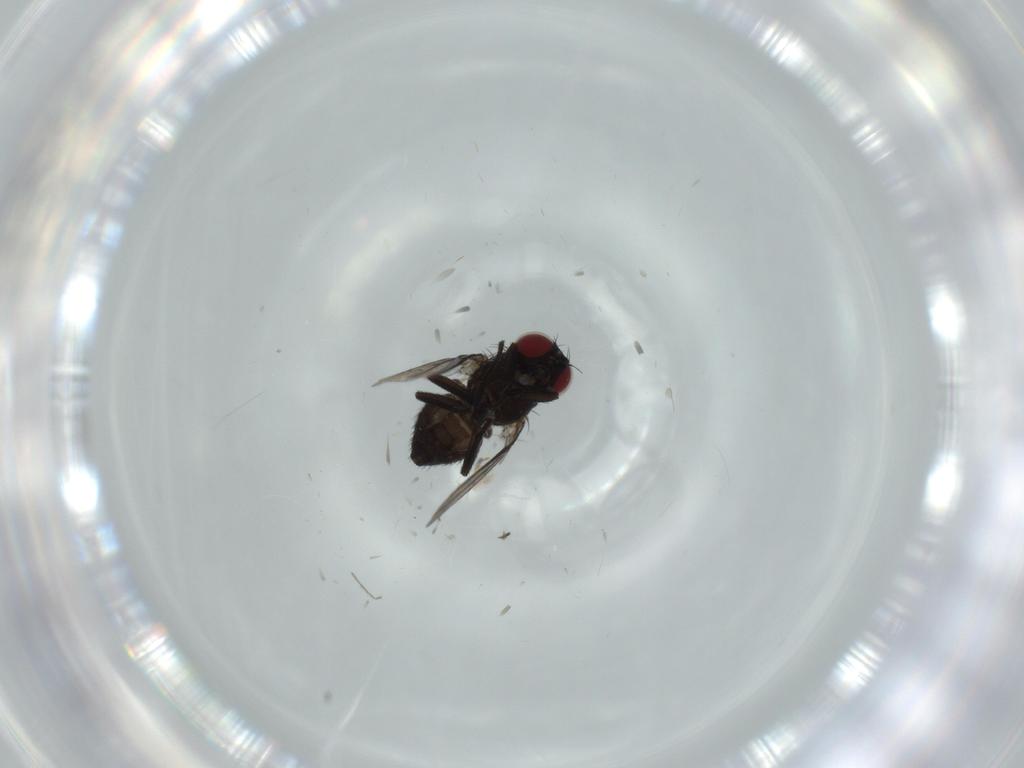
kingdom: Animalia
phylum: Arthropoda
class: Insecta
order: Diptera
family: Agromyzidae
